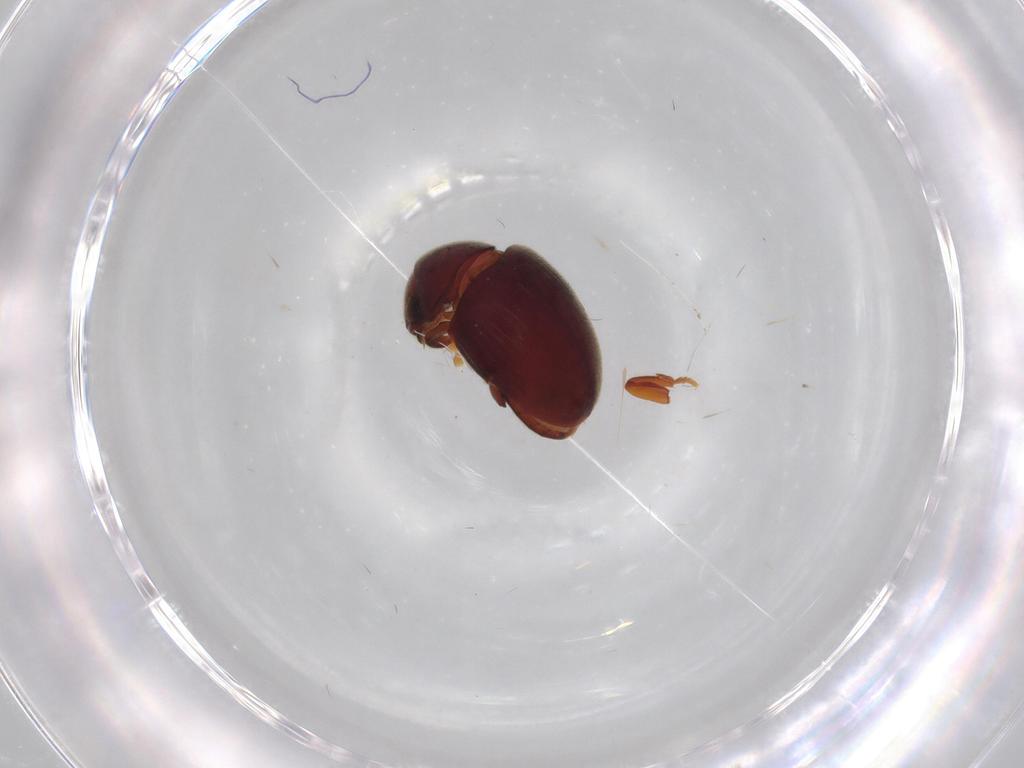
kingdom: Animalia
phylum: Arthropoda
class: Insecta
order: Coleoptera
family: Ptinidae
